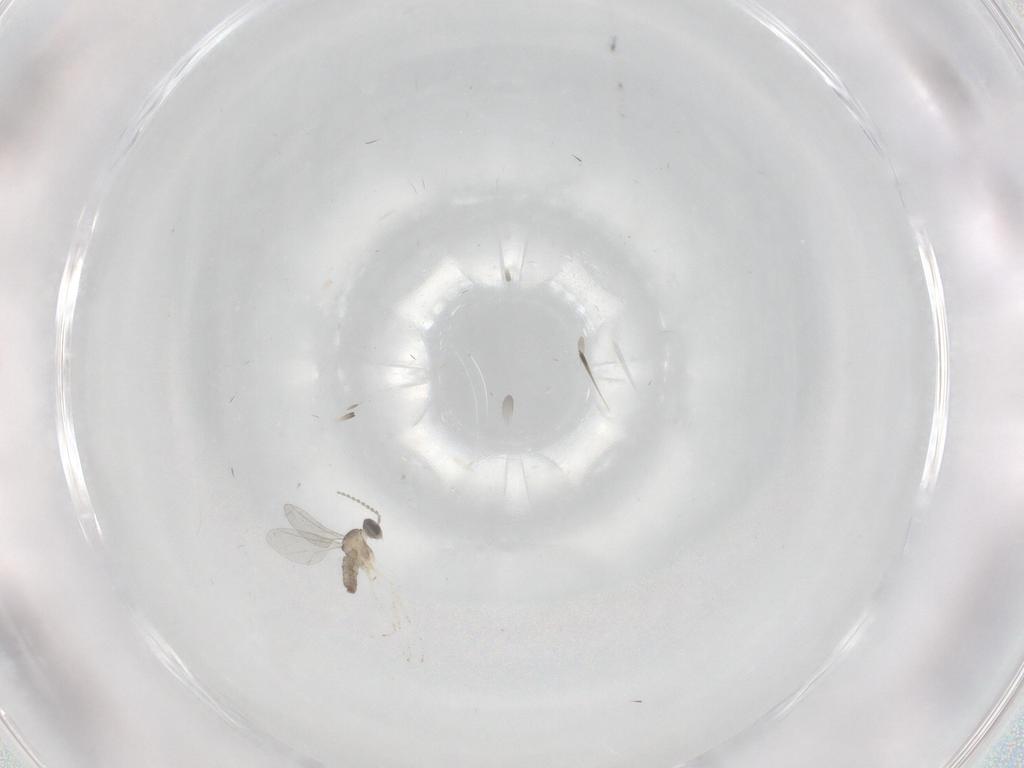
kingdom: Animalia
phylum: Arthropoda
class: Insecta
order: Diptera
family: Cecidomyiidae
